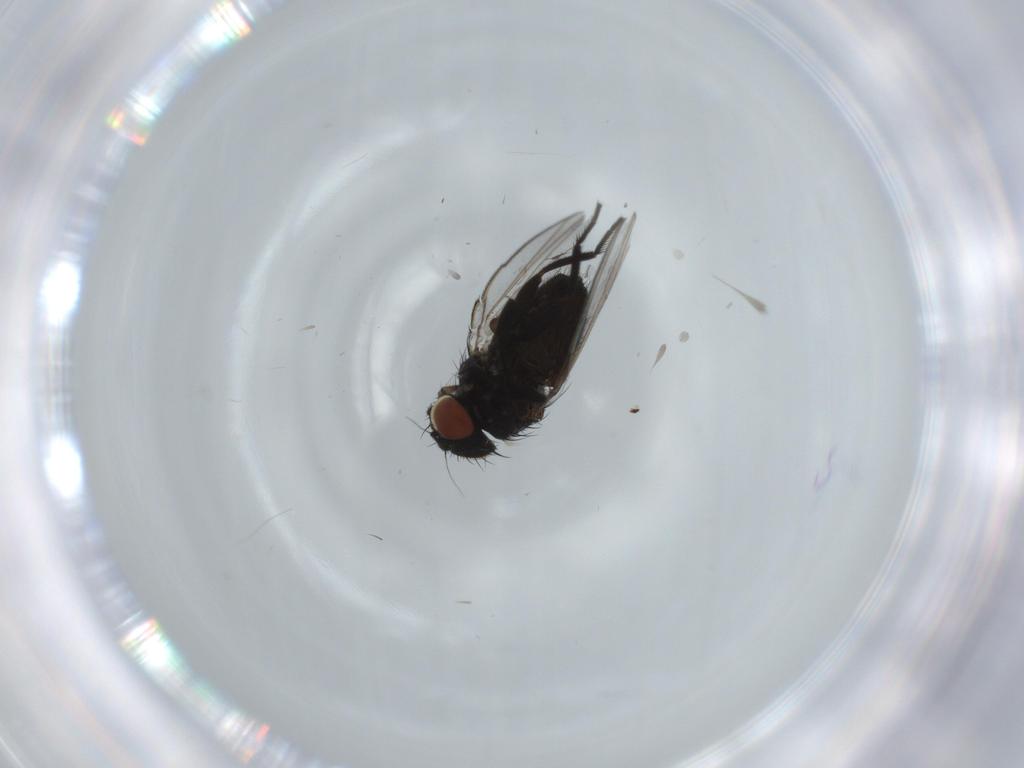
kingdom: Animalia
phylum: Arthropoda
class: Insecta
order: Diptera
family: Milichiidae
